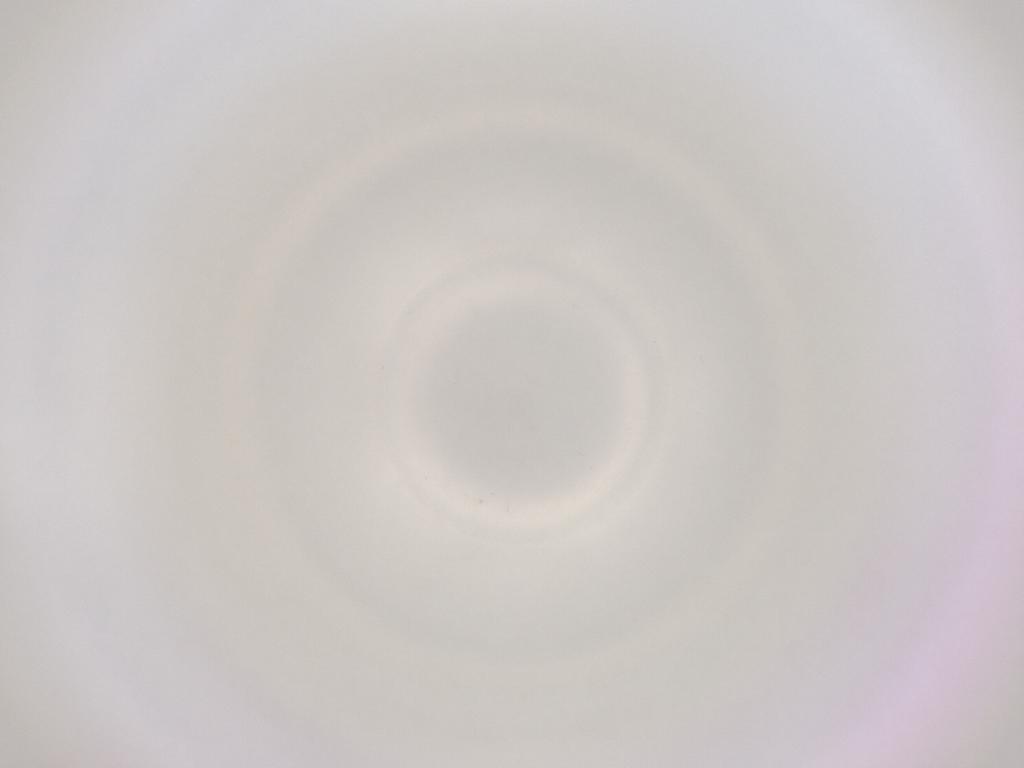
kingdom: Animalia
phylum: Arthropoda
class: Insecta
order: Diptera
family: Cecidomyiidae
